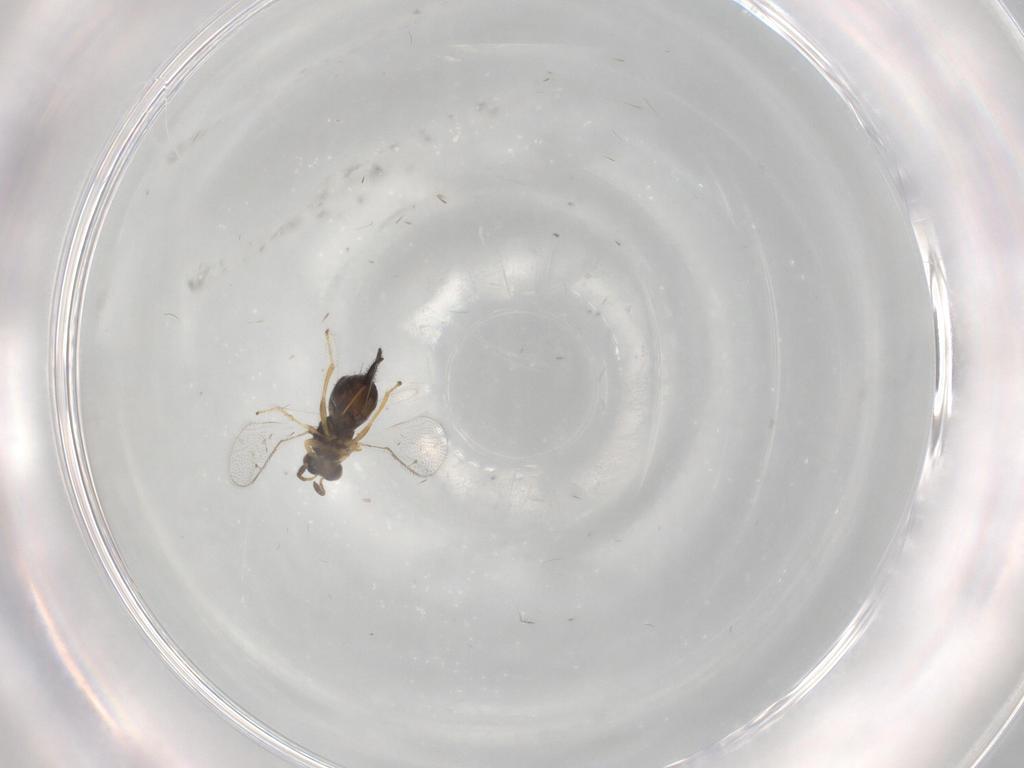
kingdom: Animalia
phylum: Arthropoda
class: Insecta
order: Hymenoptera
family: Torymidae
